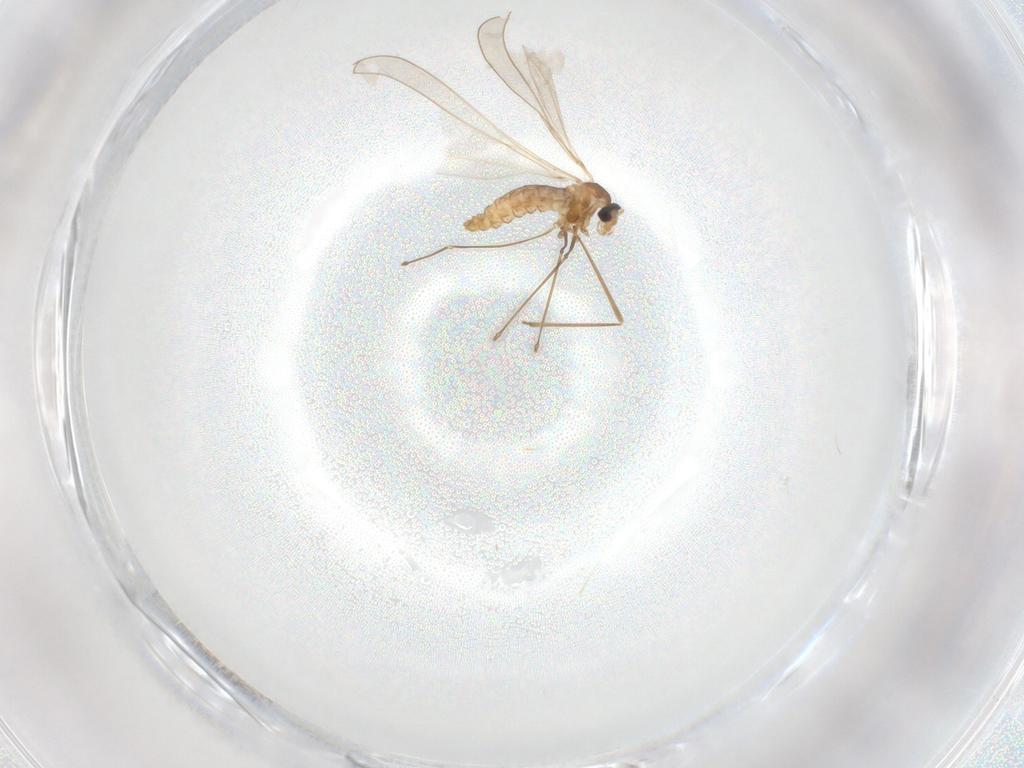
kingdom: Animalia
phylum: Arthropoda
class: Insecta
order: Diptera
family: Cecidomyiidae
